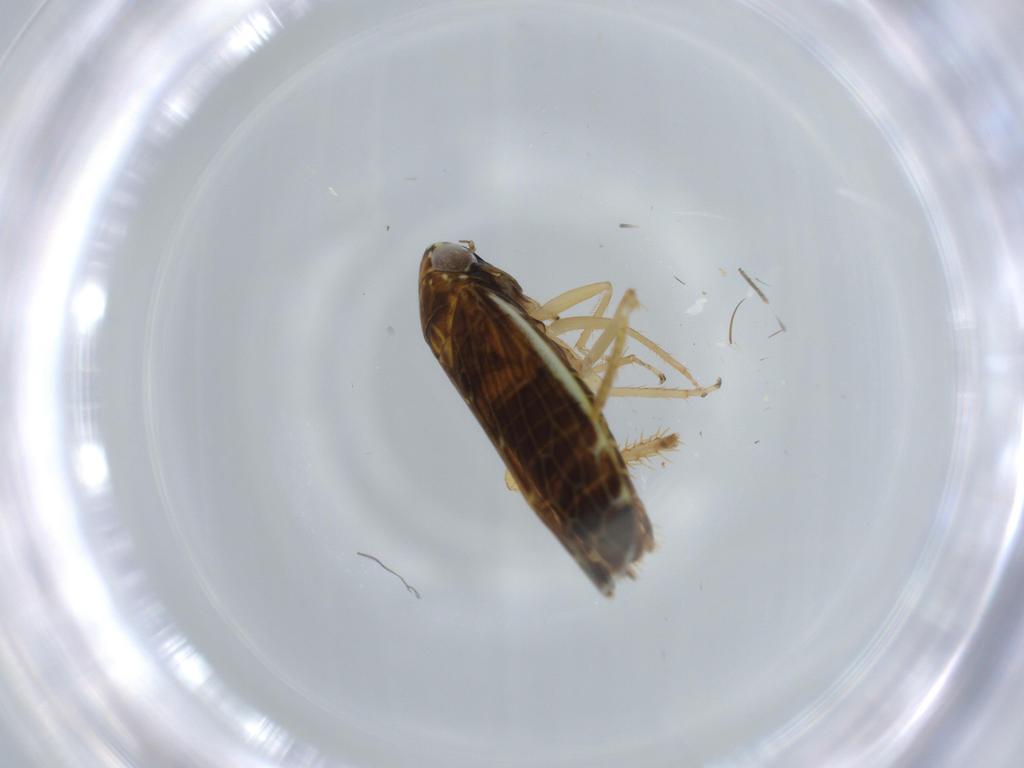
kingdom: Animalia
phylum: Arthropoda
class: Insecta
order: Hemiptera
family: Cicadellidae
